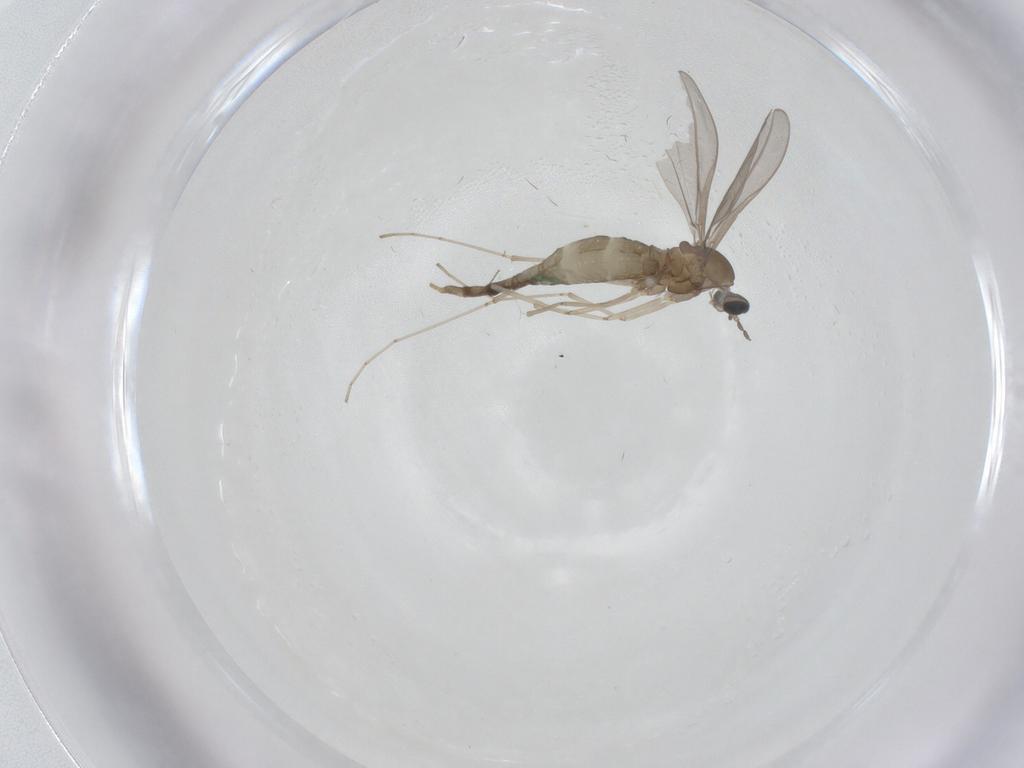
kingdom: Animalia
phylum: Arthropoda
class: Insecta
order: Diptera
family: Cecidomyiidae
